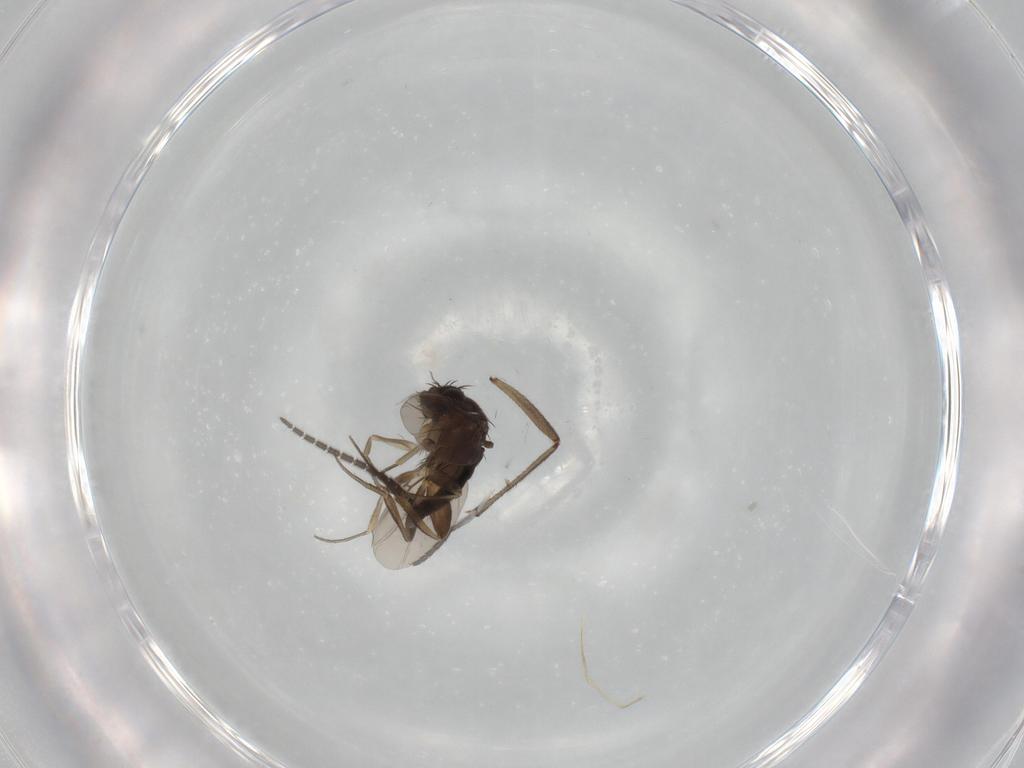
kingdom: Animalia
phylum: Arthropoda
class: Insecta
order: Diptera
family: Phoridae
